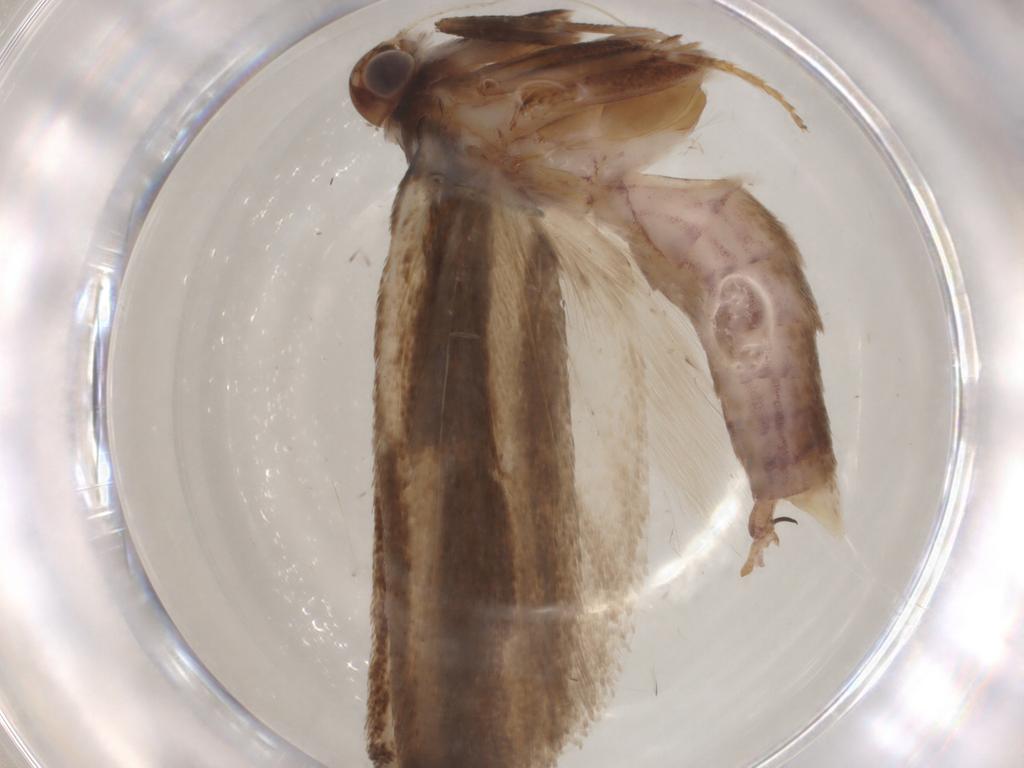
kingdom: Animalia
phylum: Arthropoda
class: Insecta
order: Lepidoptera
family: Gelechiidae
